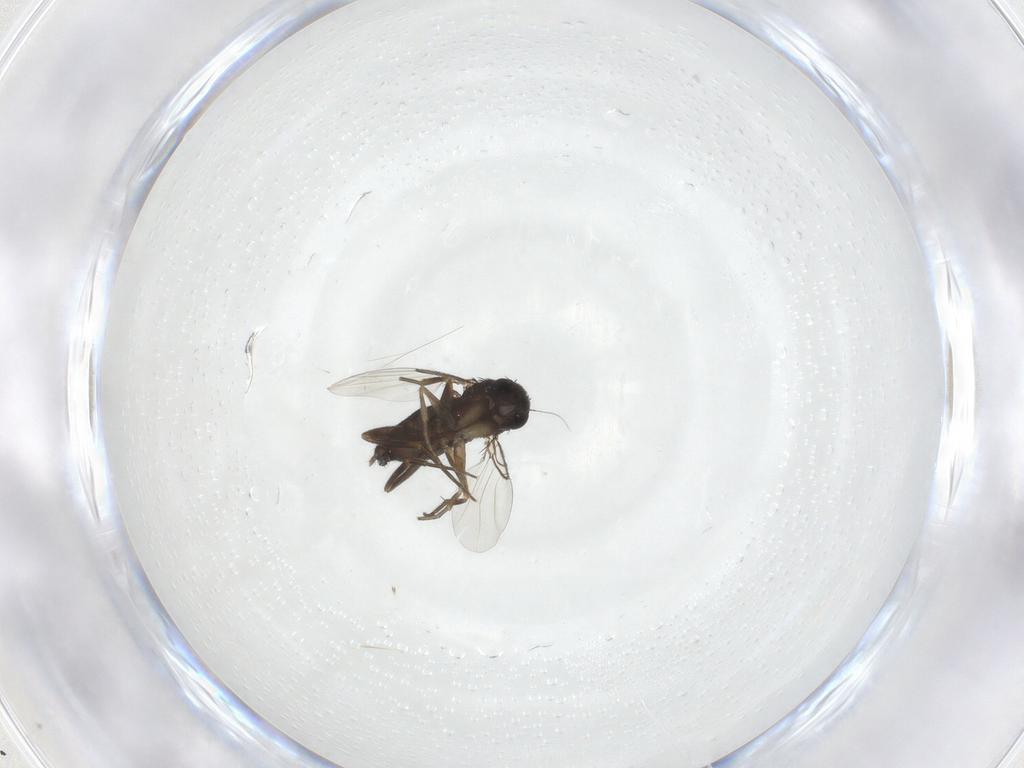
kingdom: Animalia
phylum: Arthropoda
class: Insecta
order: Diptera
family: Phoridae
